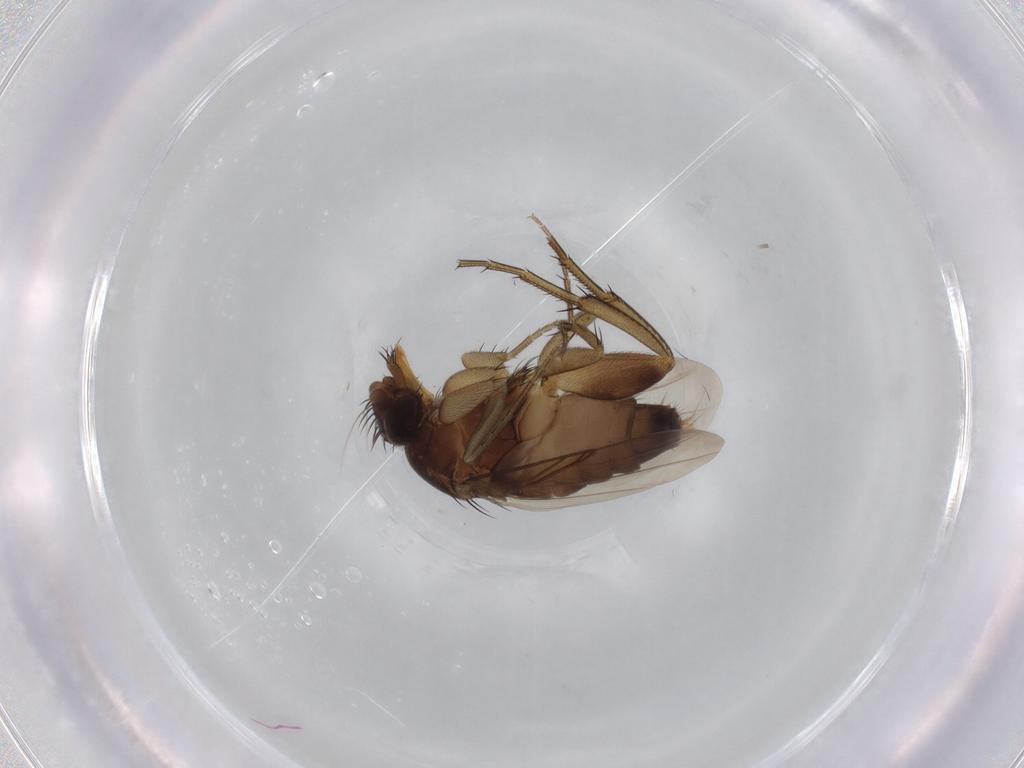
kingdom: Animalia
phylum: Arthropoda
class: Insecta
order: Diptera
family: Phoridae
